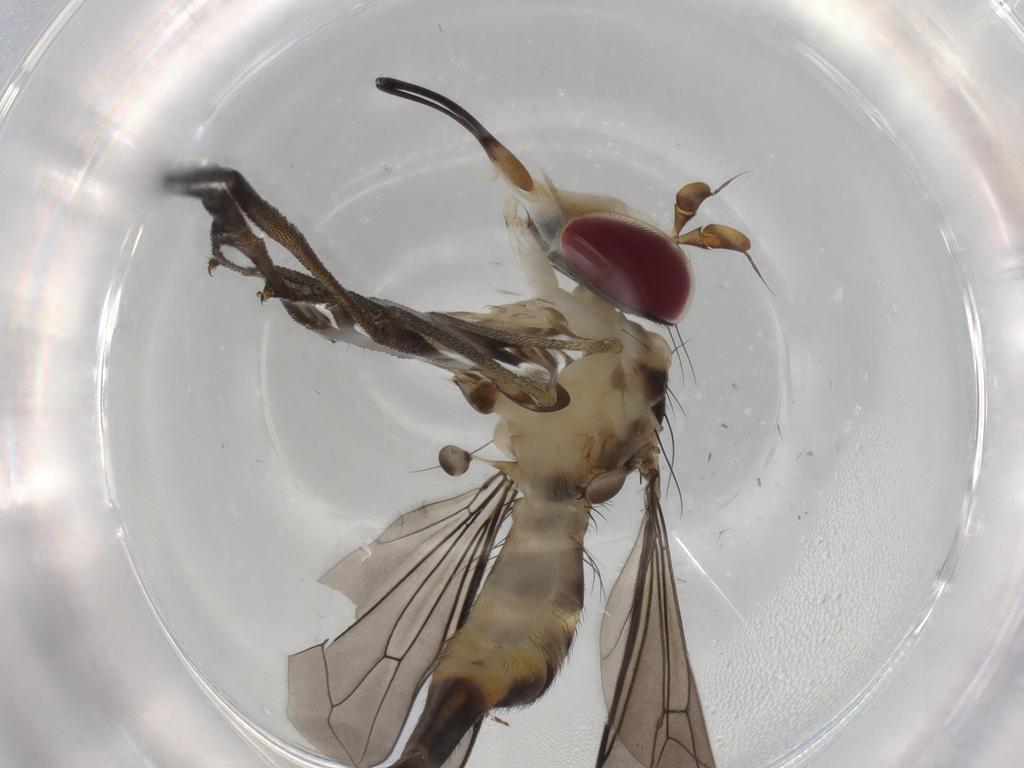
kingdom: Animalia
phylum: Arthropoda
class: Insecta
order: Diptera
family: Conopidae
